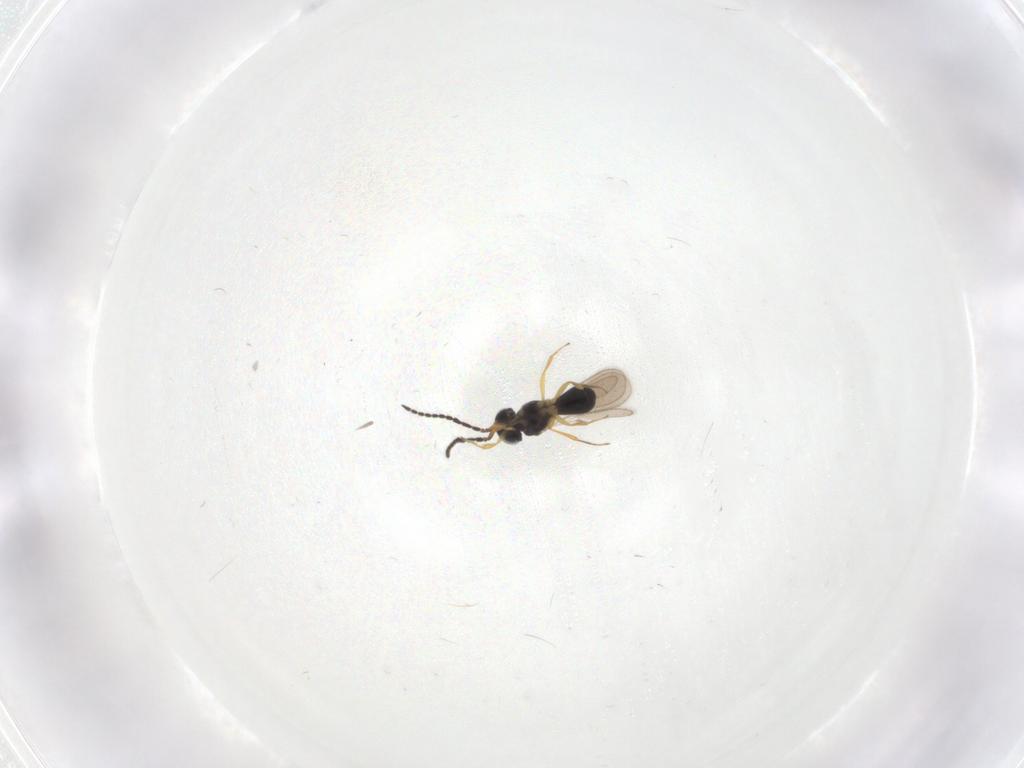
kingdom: Animalia
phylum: Arthropoda
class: Insecta
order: Hymenoptera
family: Scelionidae
